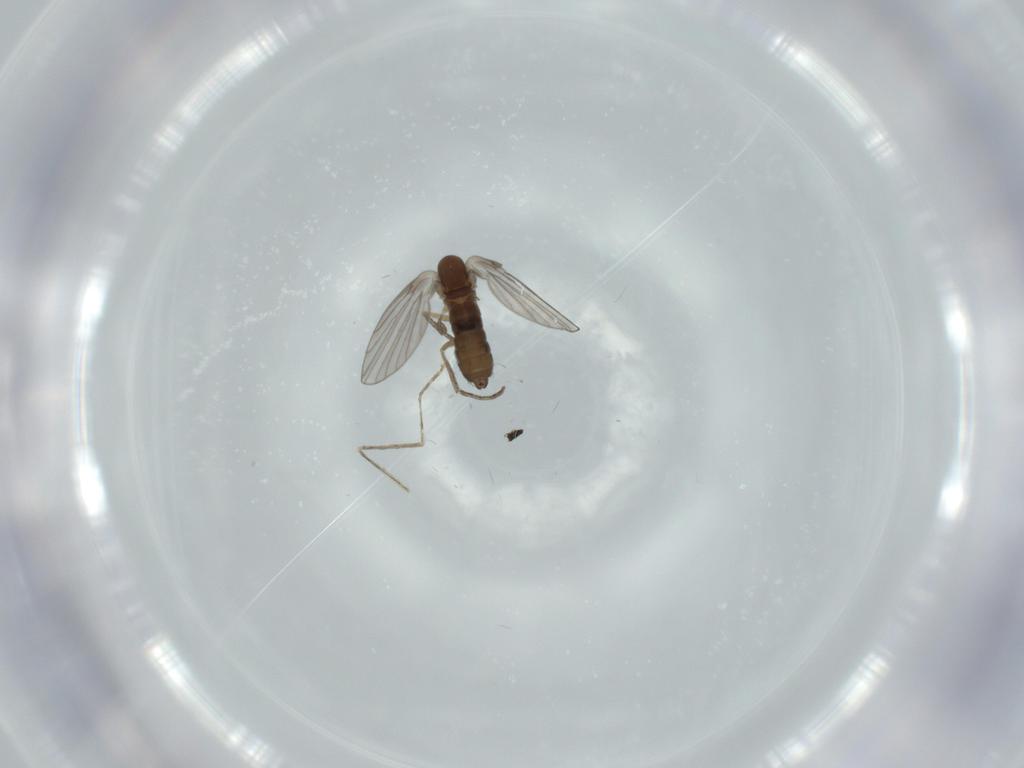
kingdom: Animalia
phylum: Arthropoda
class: Insecta
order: Diptera
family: Psychodidae
